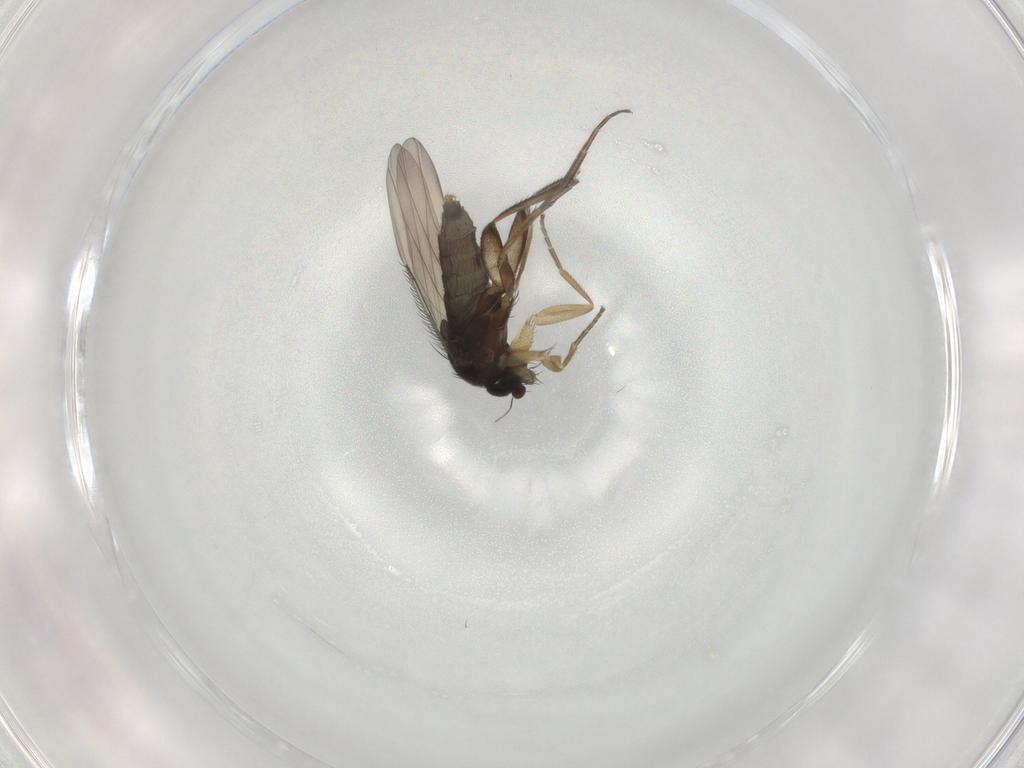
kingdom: Animalia
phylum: Arthropoda
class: Insecta
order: Diptera
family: Phoridae
